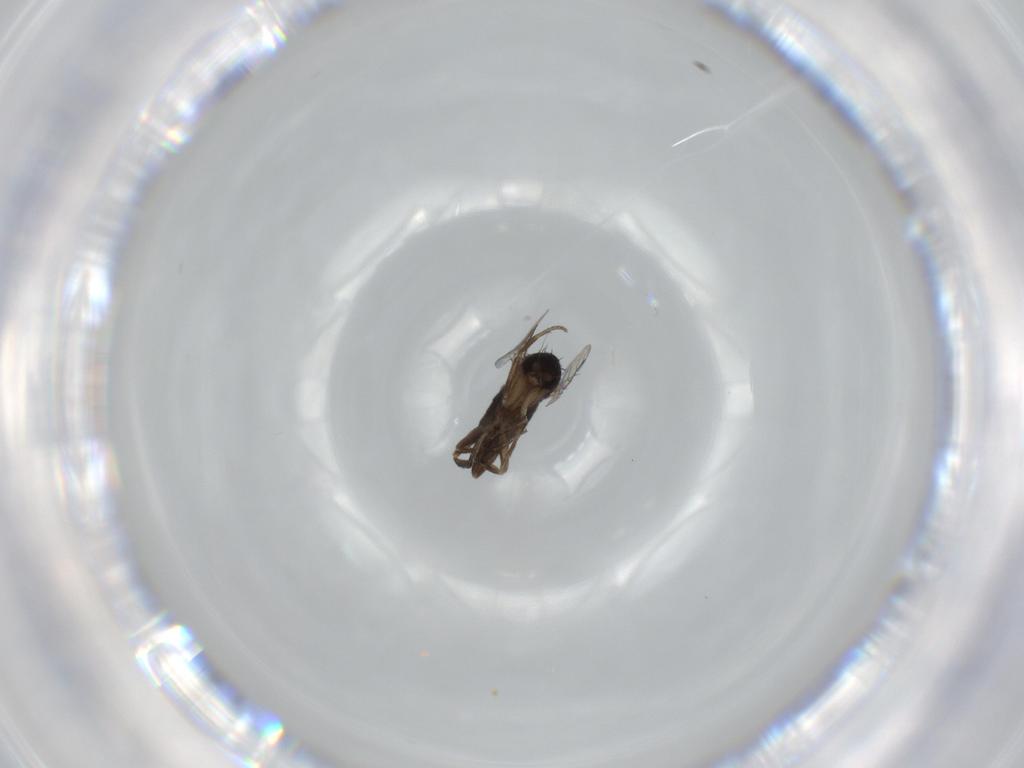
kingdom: Animalia
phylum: Arthropoda
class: Insecta
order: Diptera
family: Phoridae
